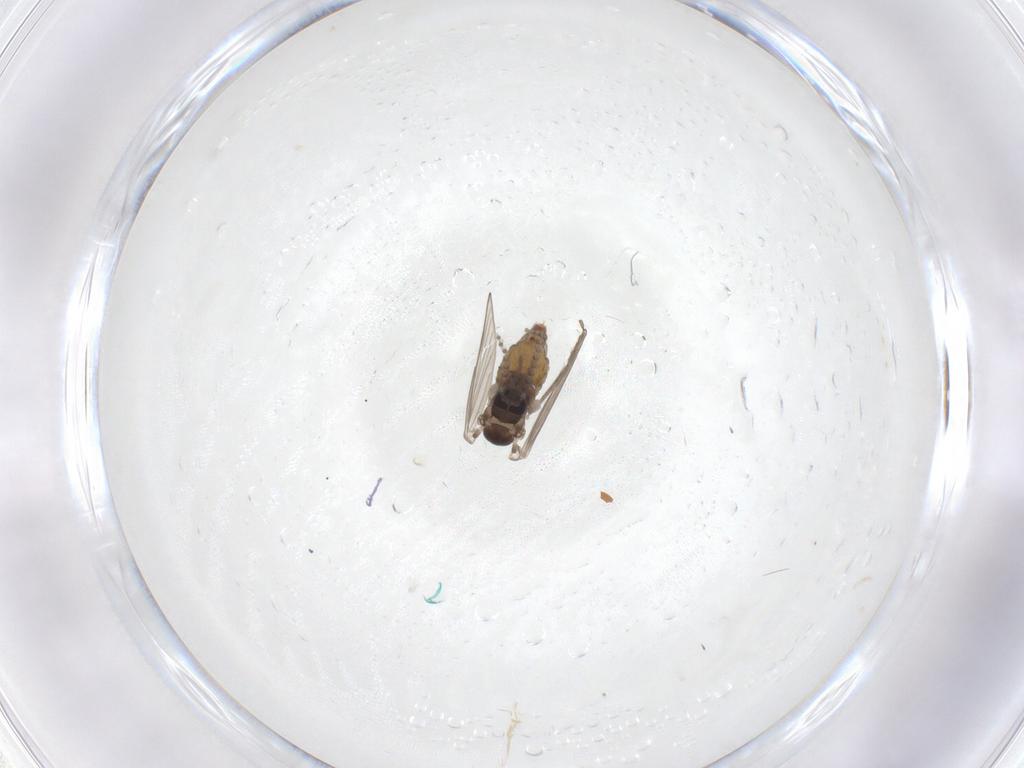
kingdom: Animalia
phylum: Arthropoda
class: Insecta
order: Diptera
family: Psychodidae
